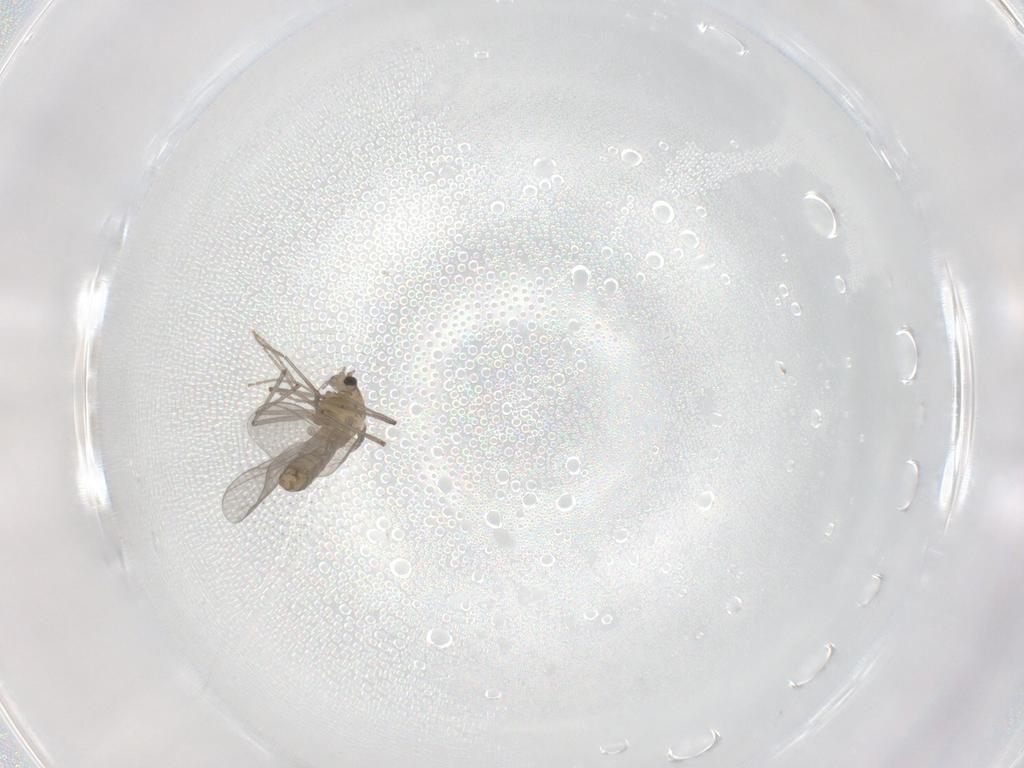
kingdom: Animalia
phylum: Arthropoda
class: Insecta
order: Diptera
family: Chironomidae
